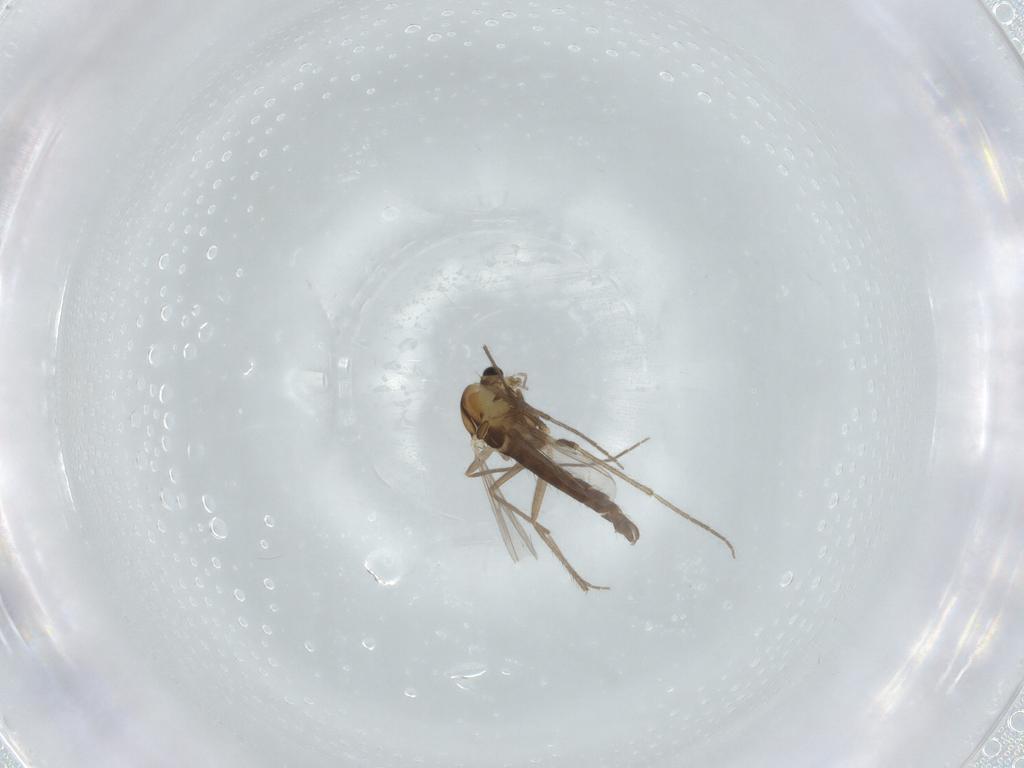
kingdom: Animalia
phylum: Arthropoda
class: Insecta
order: Diptera
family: Chironomidae
